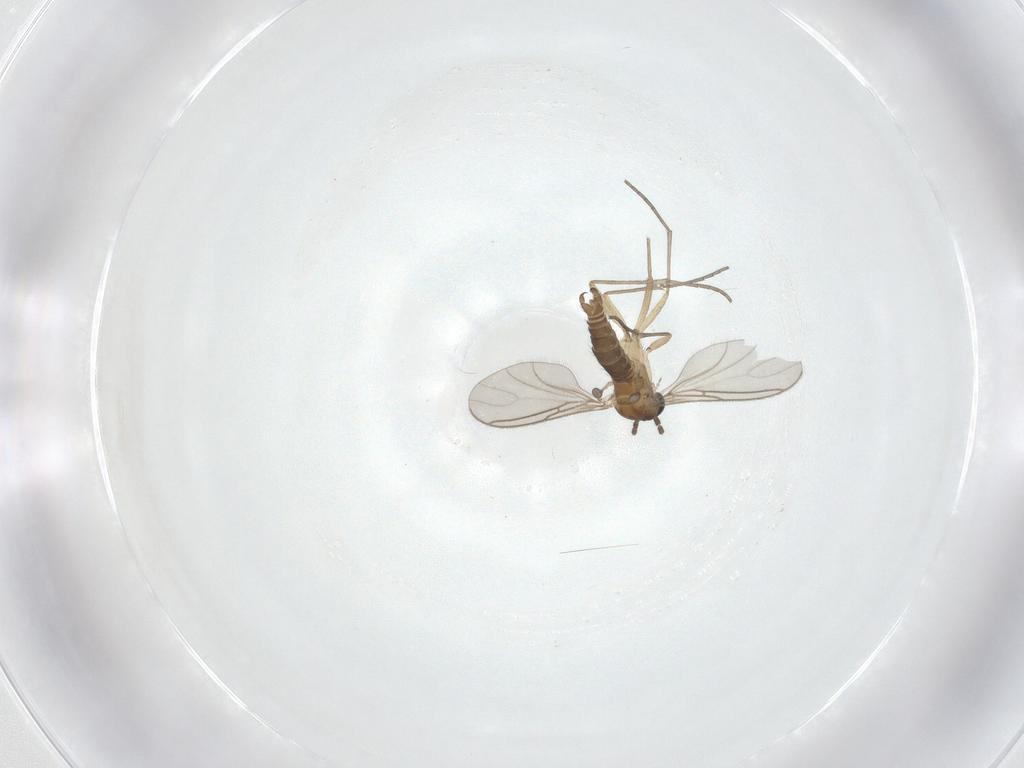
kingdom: Animalia
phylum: Arthropoda
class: Insecta
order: Diptera
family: Sciaridae
